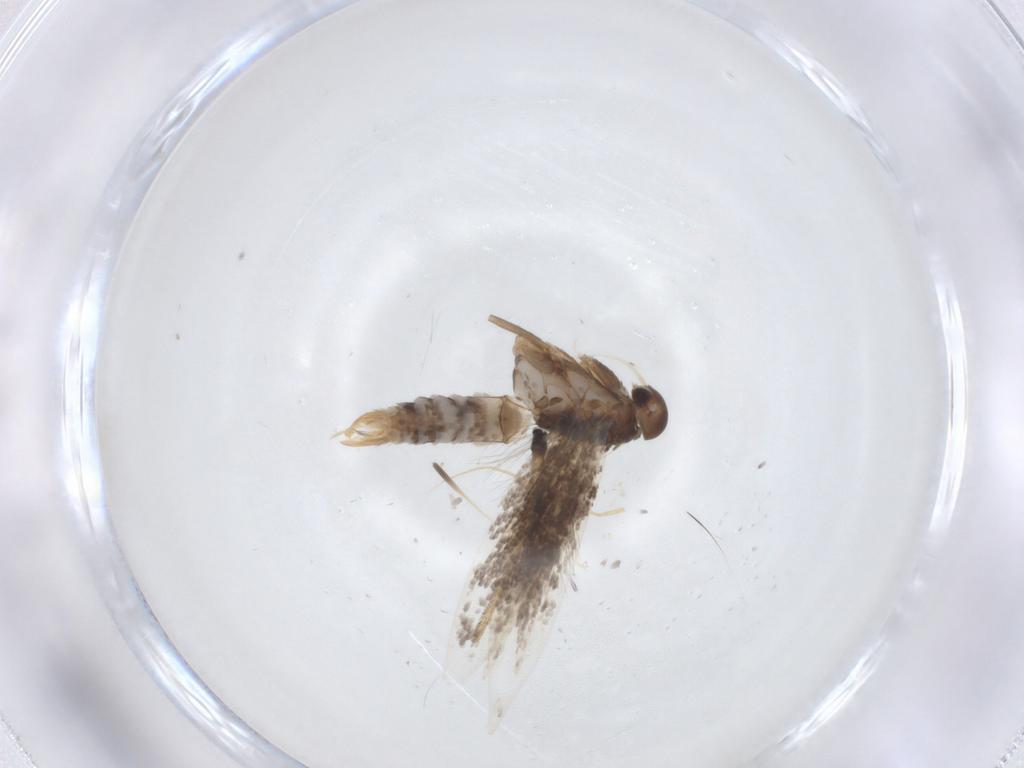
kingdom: Animalia
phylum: Arthropoda
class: Insecta
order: Lepidoptera
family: Elachistidae
